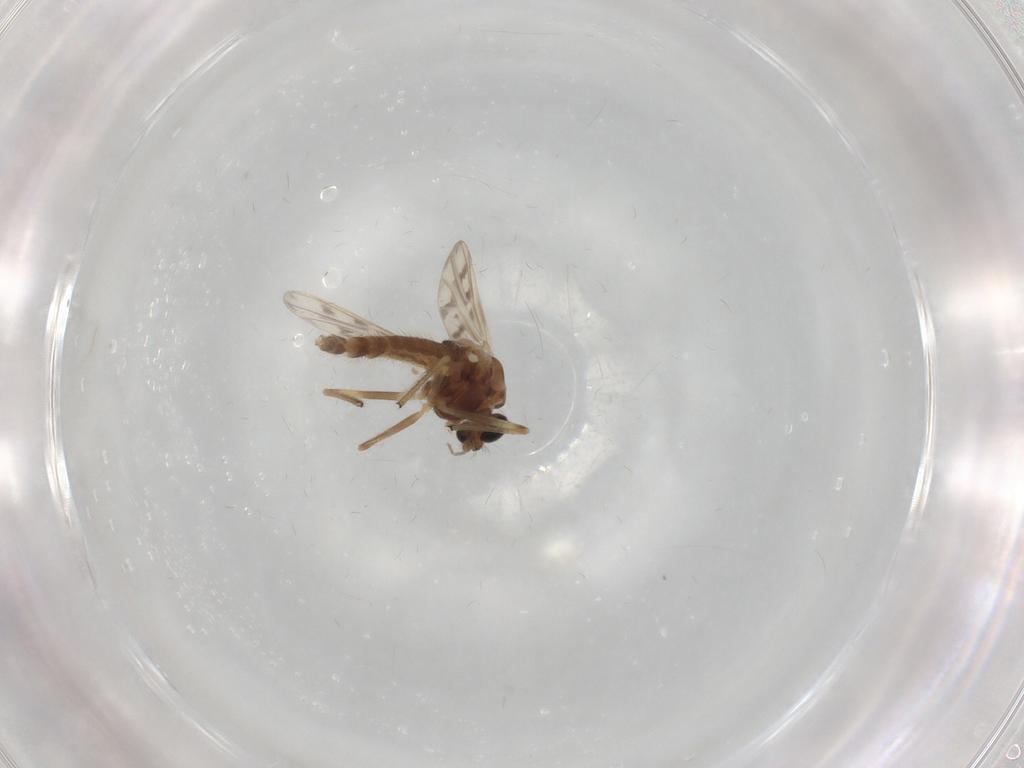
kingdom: Animalia
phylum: Arthropoda
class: Insecta
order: Diptera
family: Chironomidae
